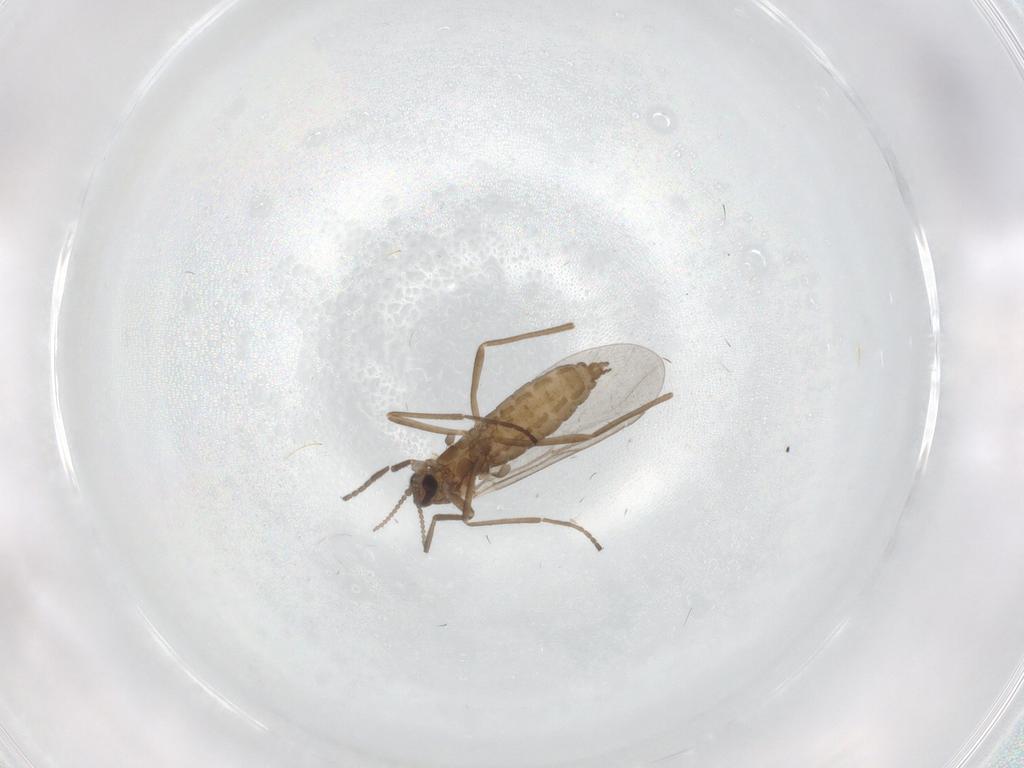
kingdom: Animalia
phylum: Arthropoda
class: Insecta
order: Diptera
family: Cecidomyiidae
